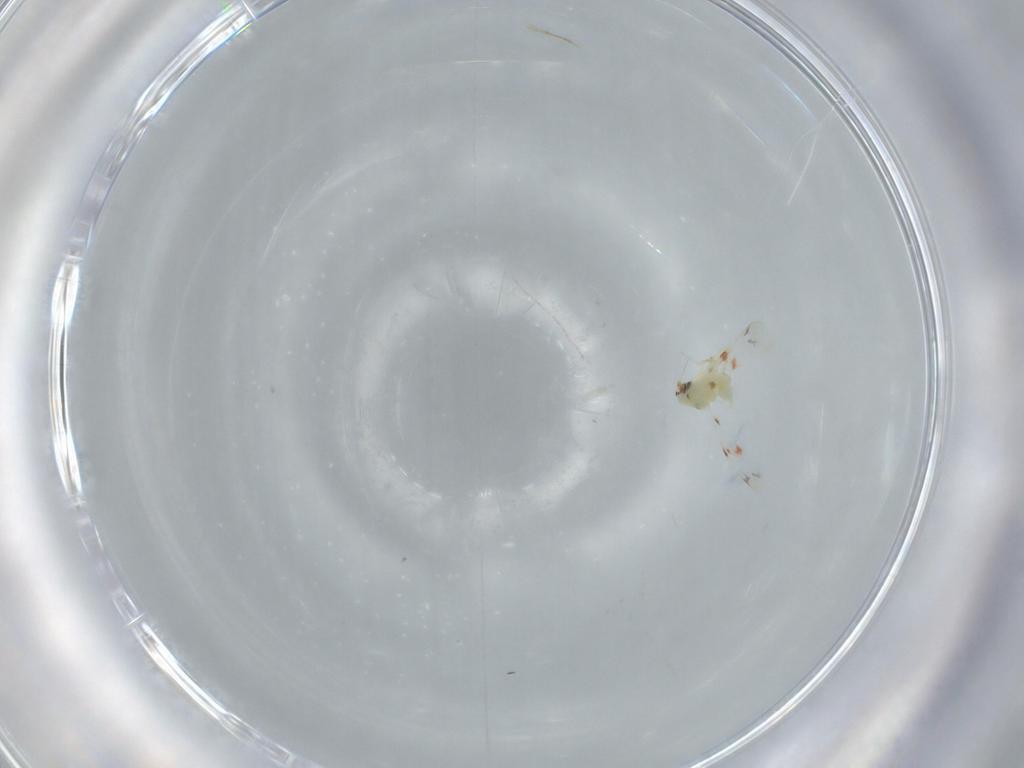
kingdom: Animalia
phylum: Arthropoda
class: Insecta
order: Hemiptera
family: Aleyrodidae
